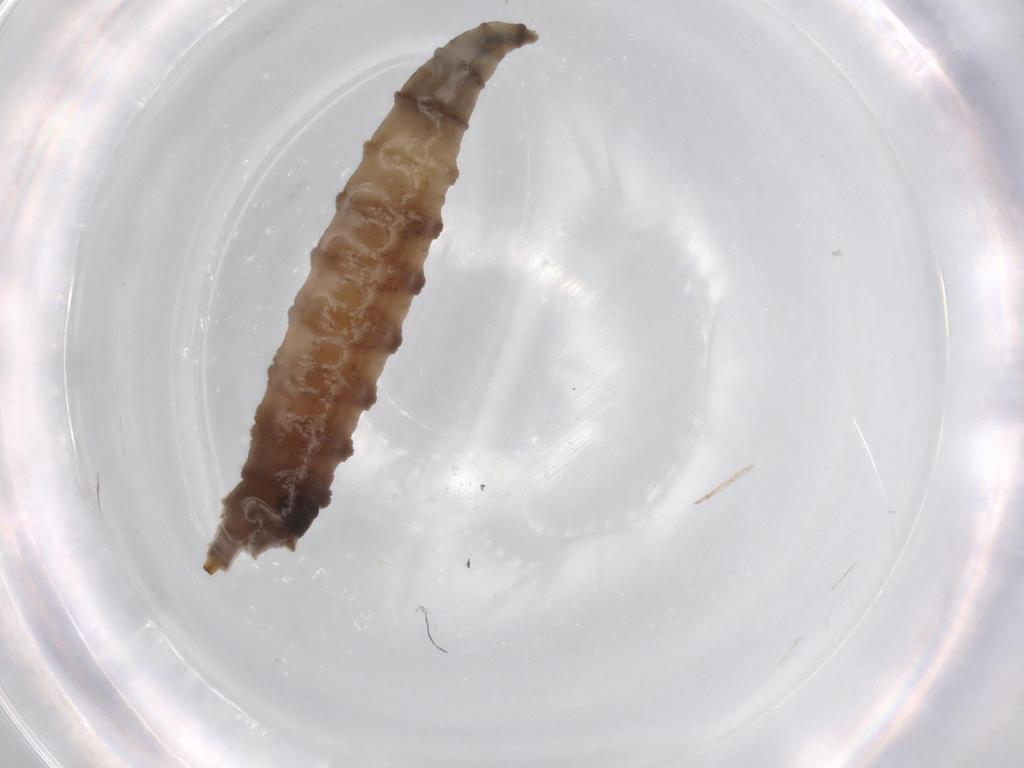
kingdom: Animalia
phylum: Arthropoda
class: Insecta
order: Diptera
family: Drosophilidae
